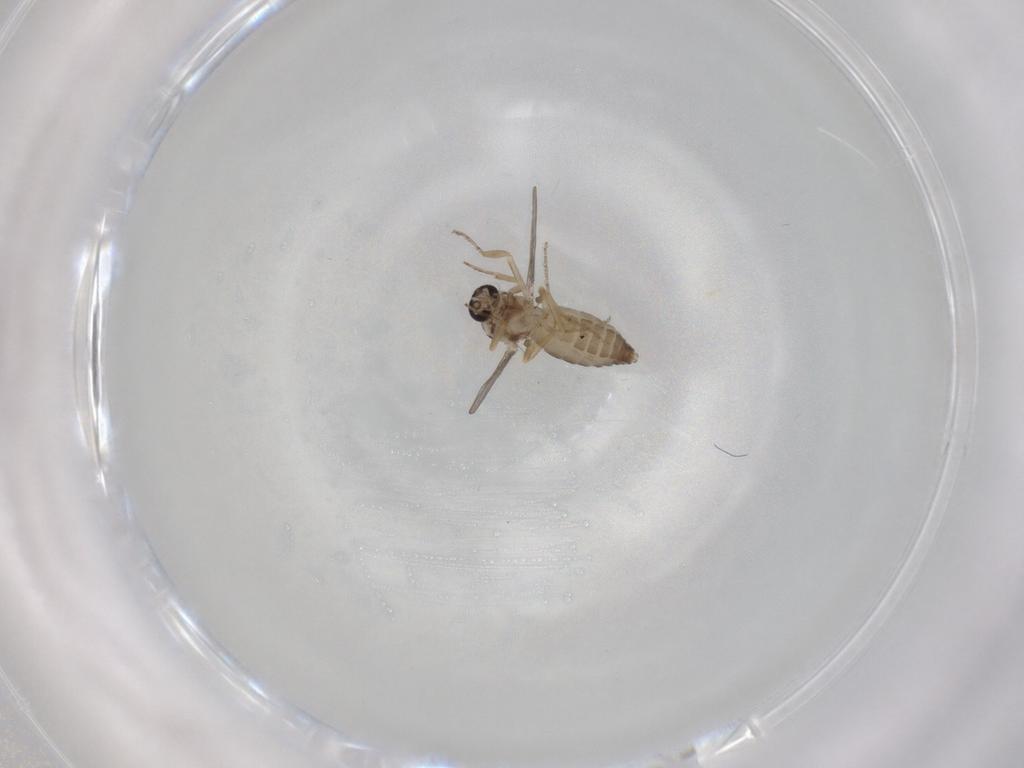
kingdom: Animalia
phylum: Arthropoda
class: Insecta
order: Diptera
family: Ceratopogonidae
